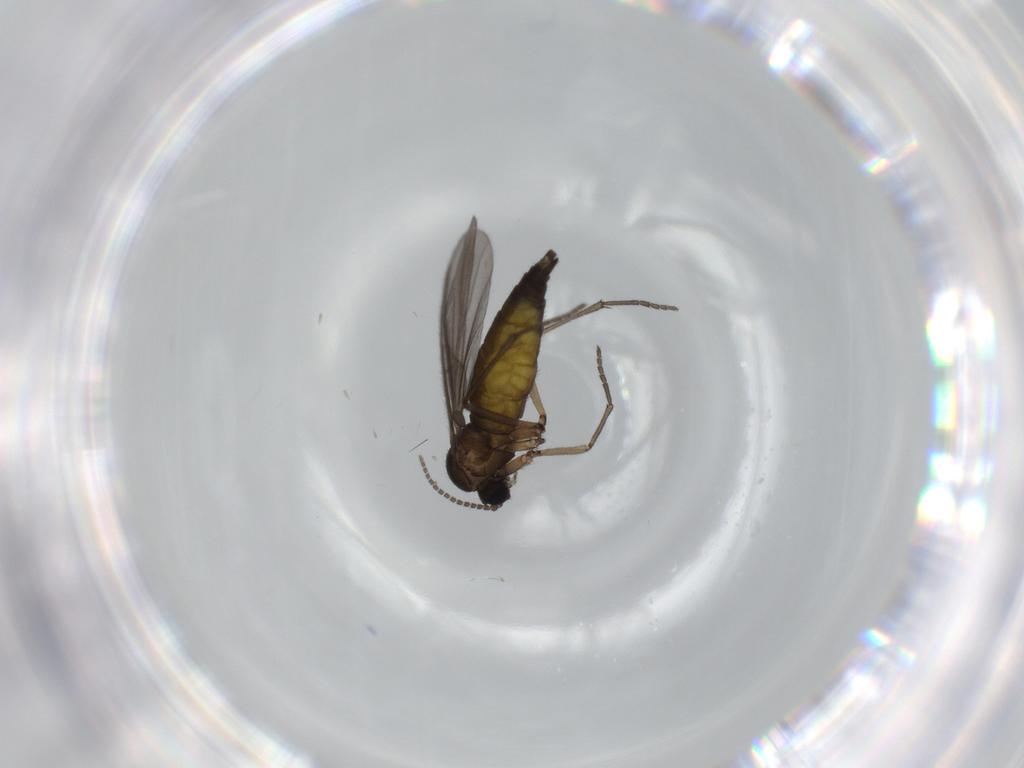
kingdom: Animalia
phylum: Arthropoda
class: Insecta
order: Diptera
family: Sciaridae
